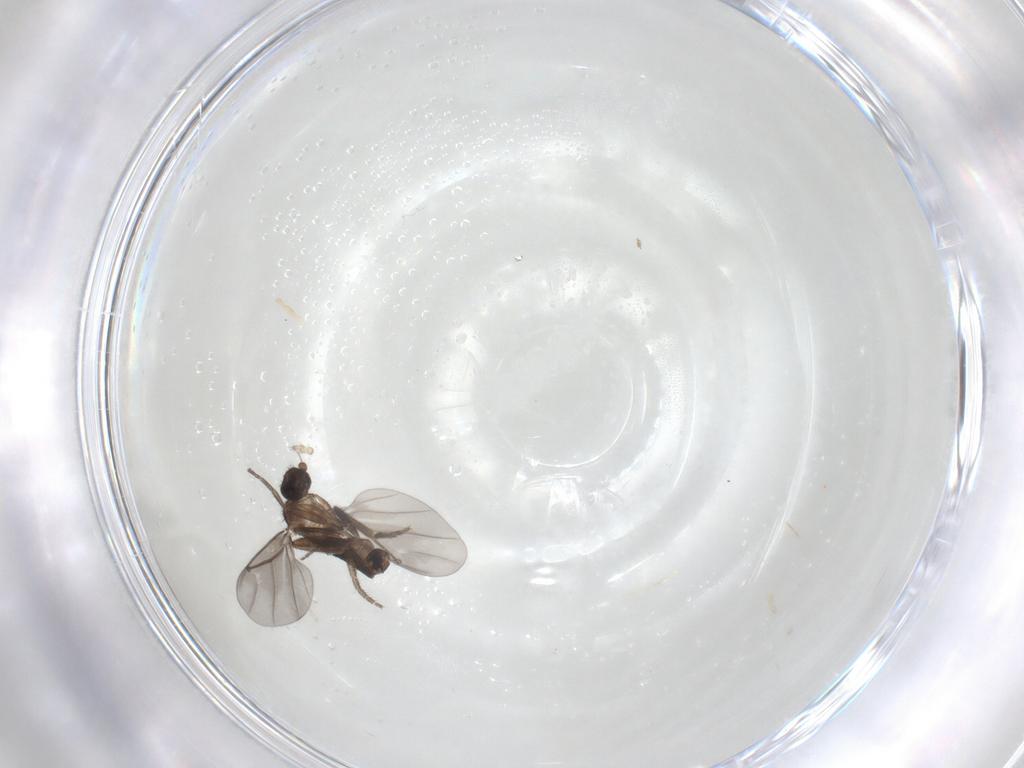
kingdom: Animalia
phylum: Arthropoda
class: Insecta
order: Diptera
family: Phoridae
